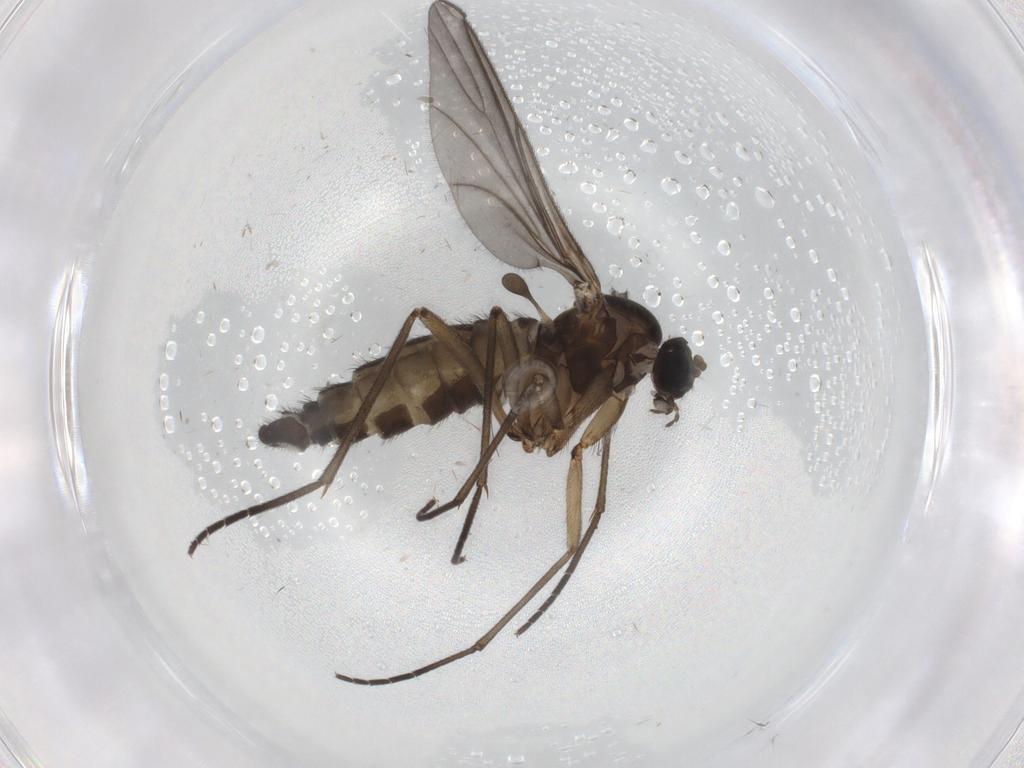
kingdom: Animalia
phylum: Arthropoda
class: Insecta
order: Diptera
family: Sciaridae
